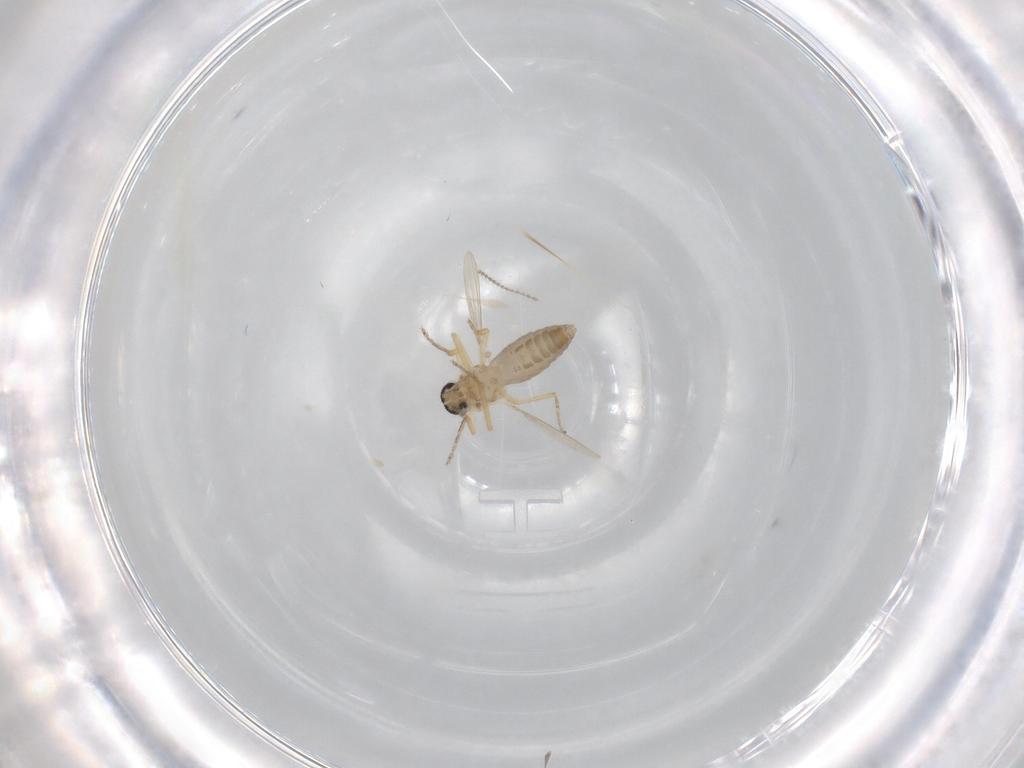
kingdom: Animalia
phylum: Arthropoda
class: Insecta
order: Diptera
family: Ceratopogonidae
